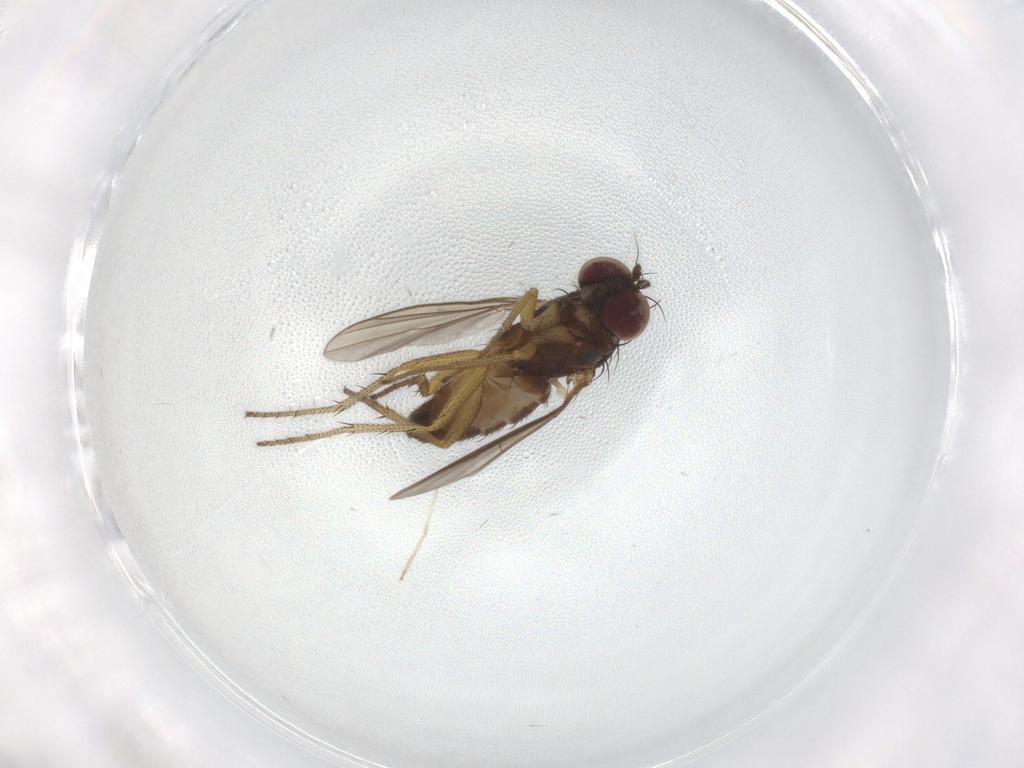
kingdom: Animalia
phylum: Arthropoda
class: Insecta
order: Diptera
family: Chironomidae
